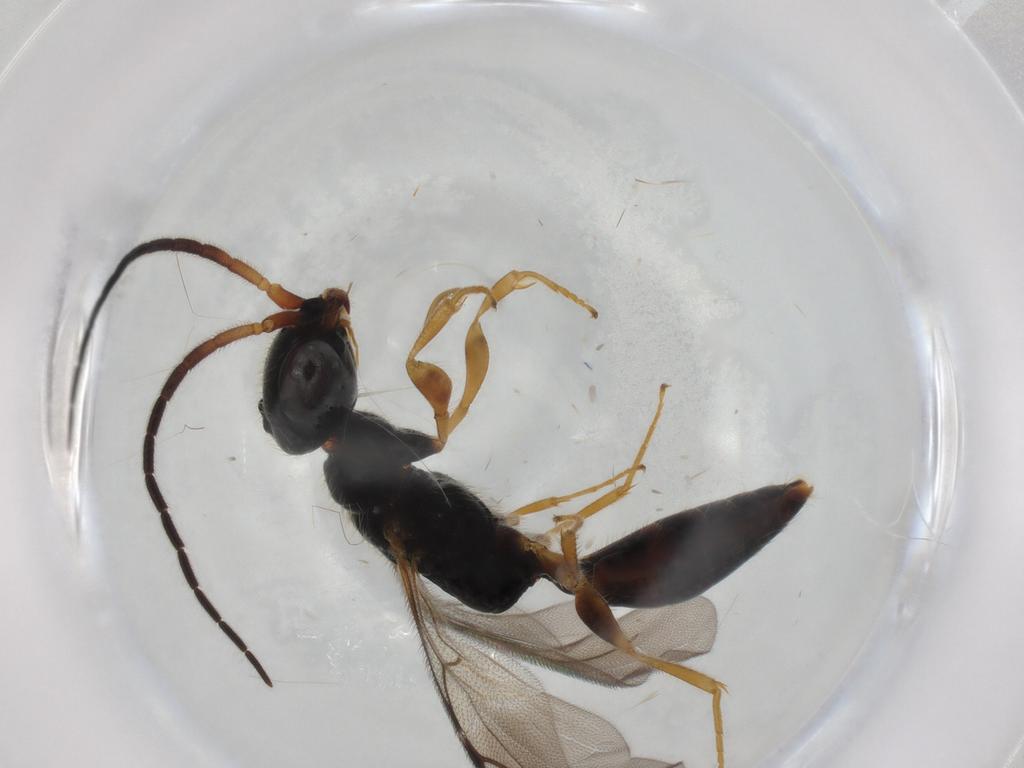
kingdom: Animalia
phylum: Arthropoda
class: Insecta
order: Hymenoptera
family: Bethylidae
